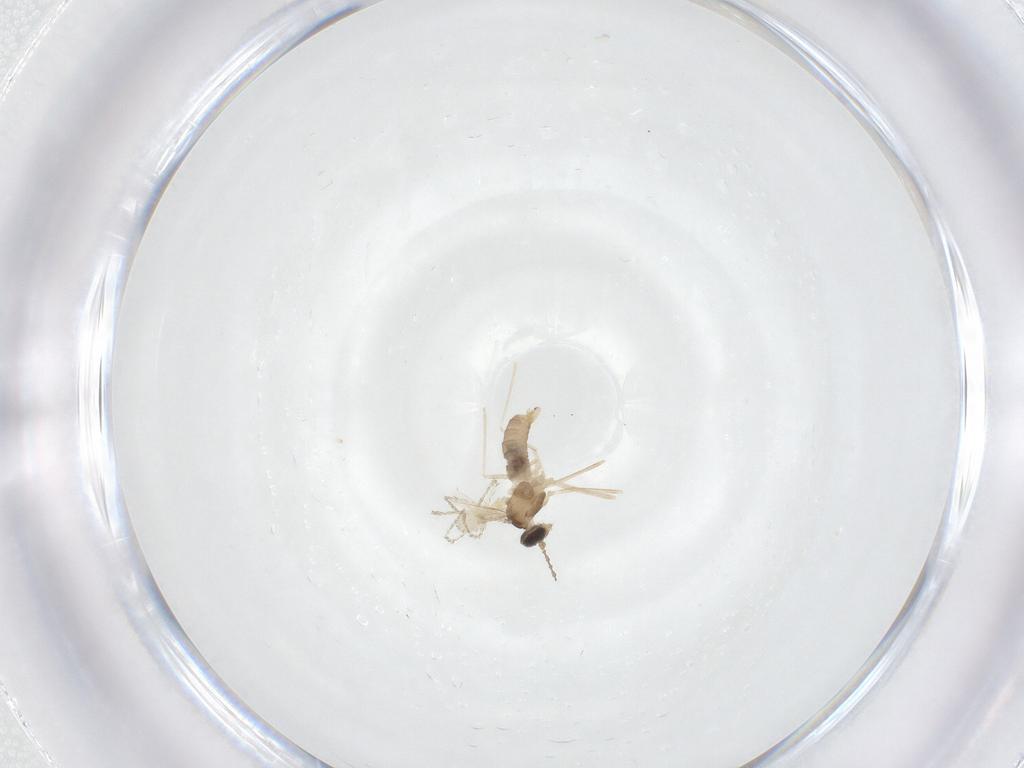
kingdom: Animalia
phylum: Arthropoda
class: Insecta
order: Diptera
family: Cecidomyiidae
